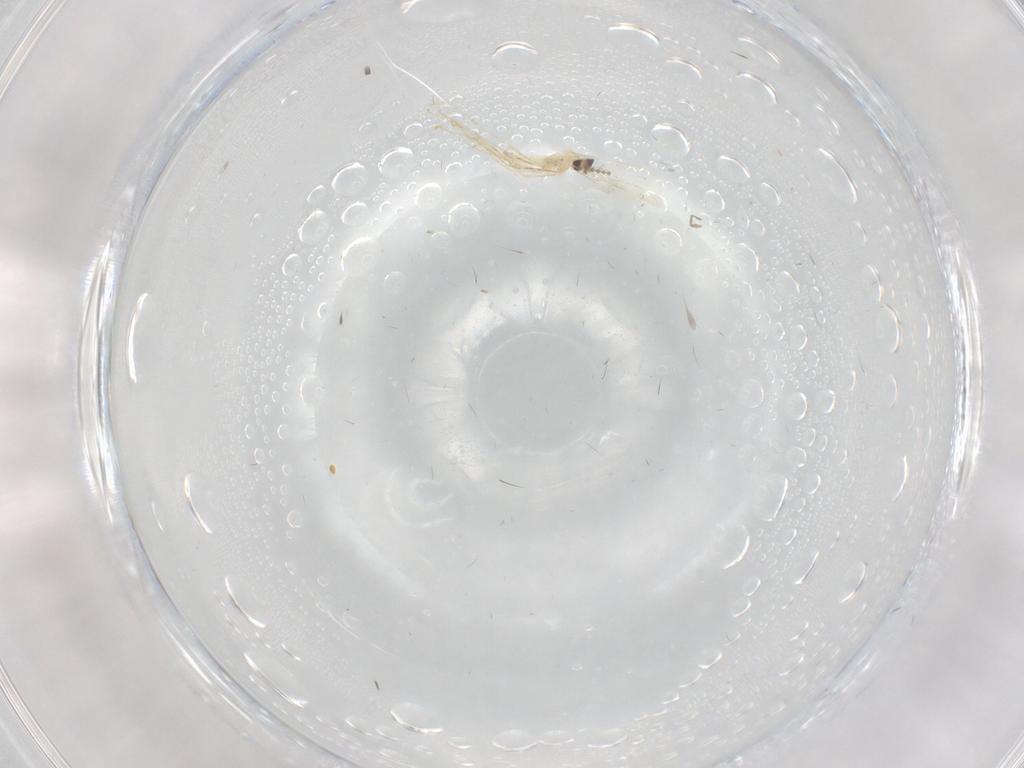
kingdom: Animalia
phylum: Arthropoda
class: Insecta
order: Diptera
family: Cecidomyiidae
